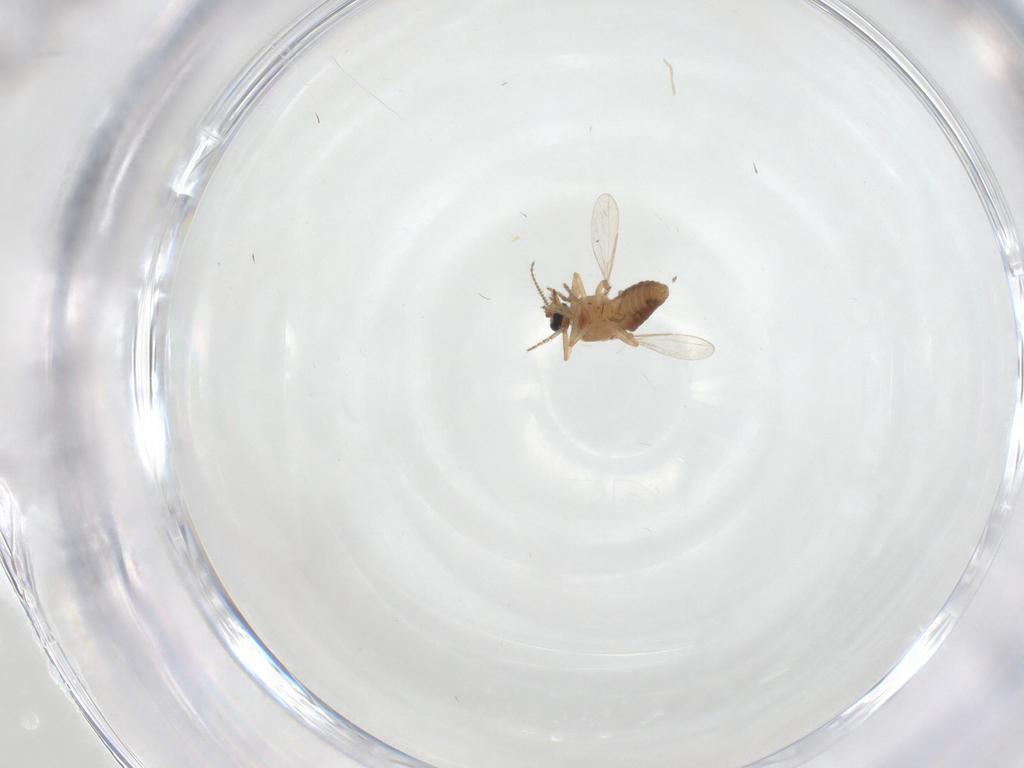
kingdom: Animalia
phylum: Arthropoda
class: Insecta
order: Diptera
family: Ceratopogonidae
